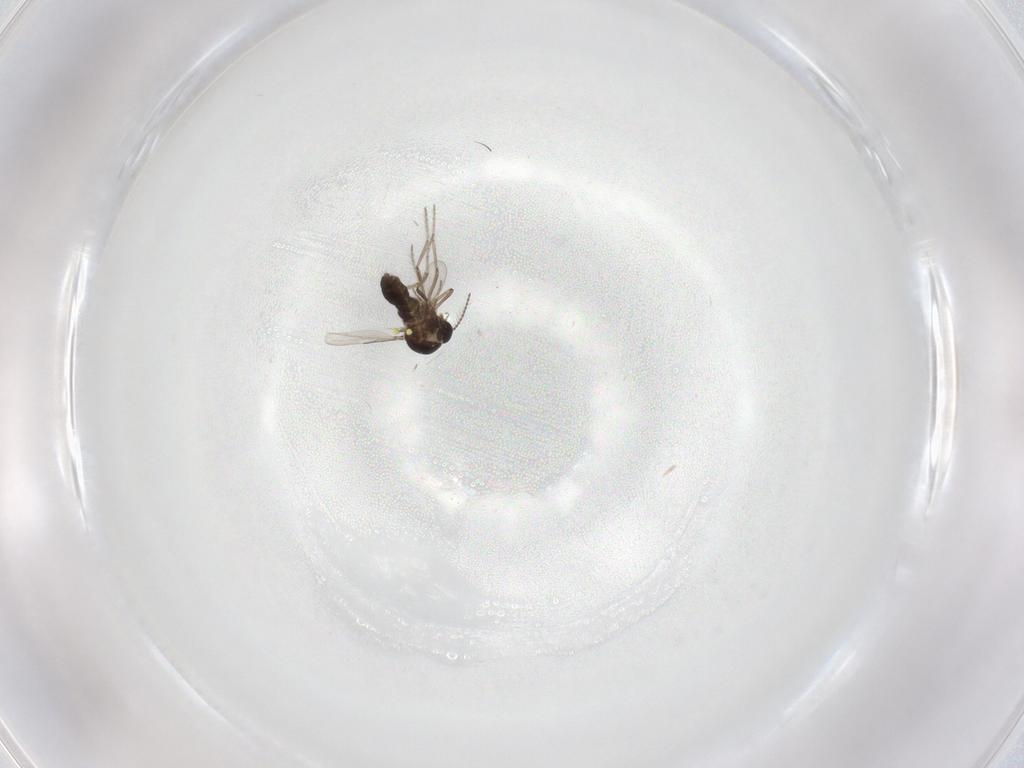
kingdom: Animalia
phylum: Arthropoda
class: Insecta
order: Diptera
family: Ceratopogonidae
